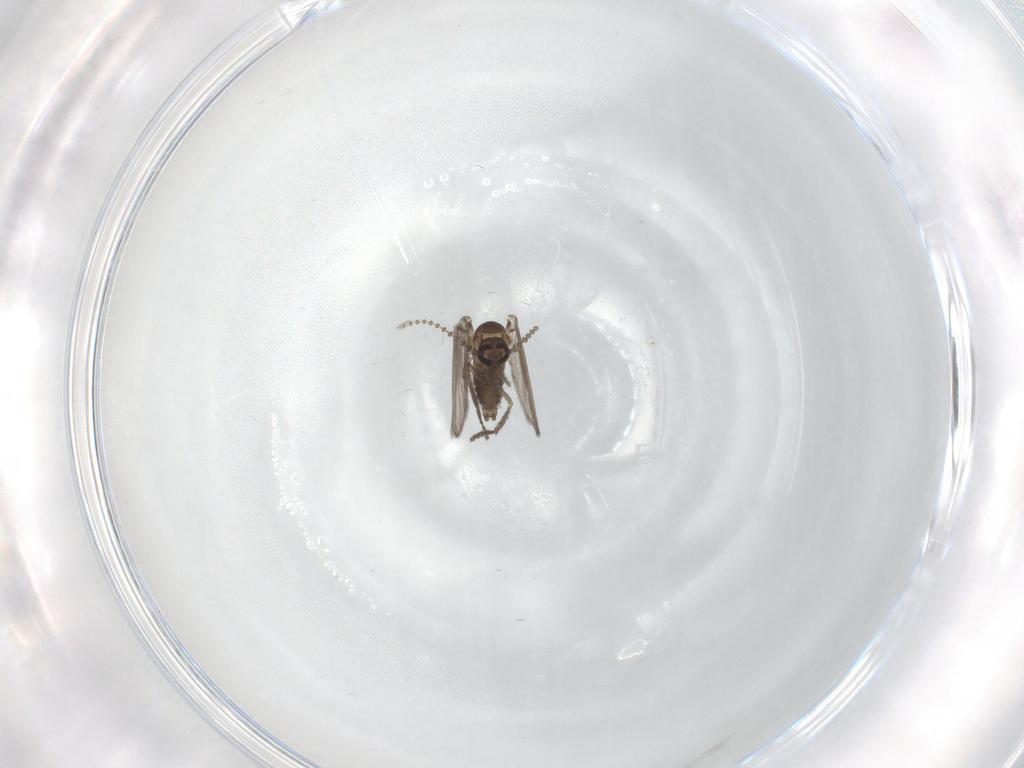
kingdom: Animalia
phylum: Arthropoda
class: Insecta
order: Diptera
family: Psychodidae
